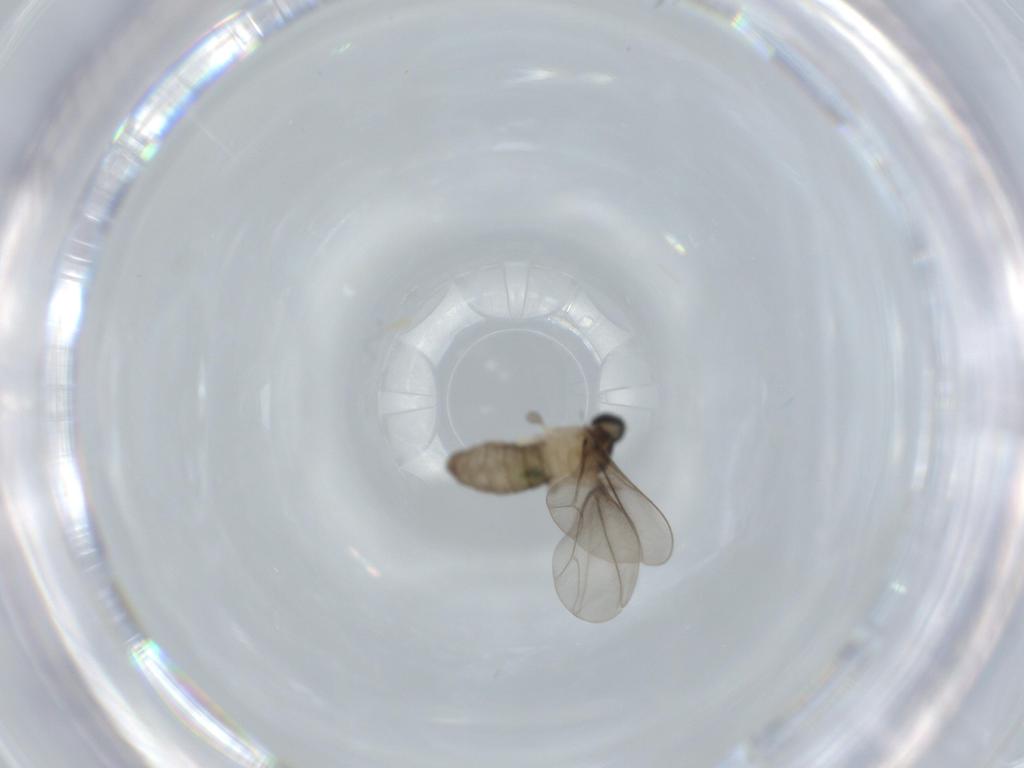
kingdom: Animalia
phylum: Arthropoda
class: Insecta
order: Diptera
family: Cecidomyiidae
